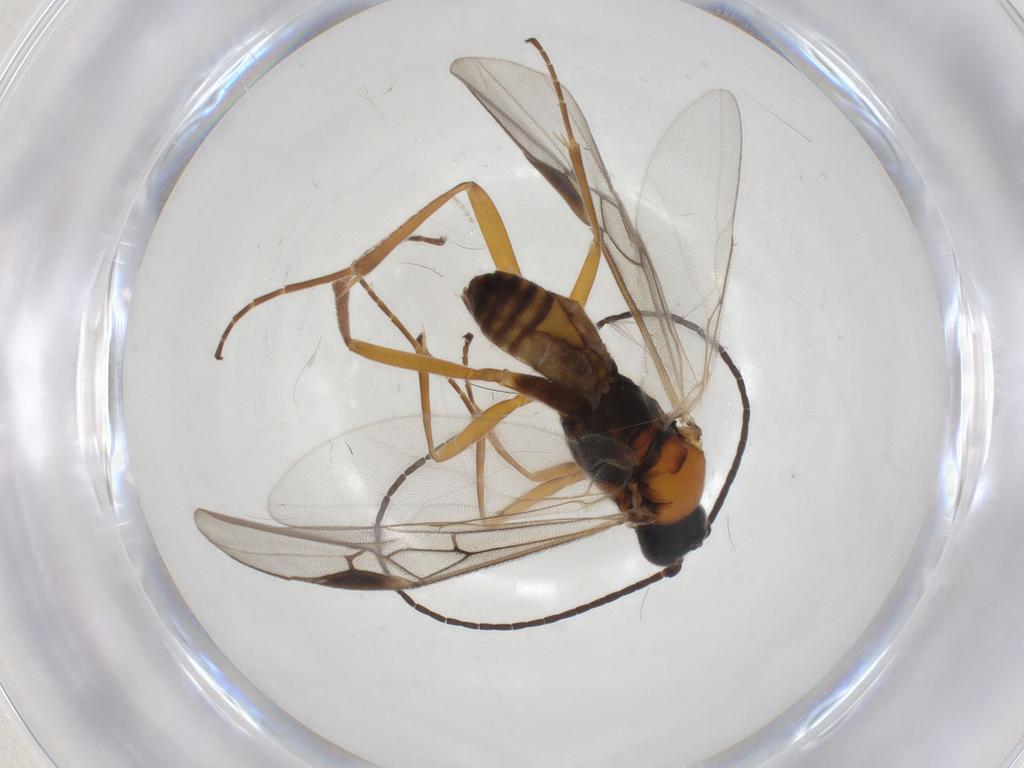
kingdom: Animalia
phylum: Arthropoda
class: Insecta
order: Hymenoptera
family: Braconidae
